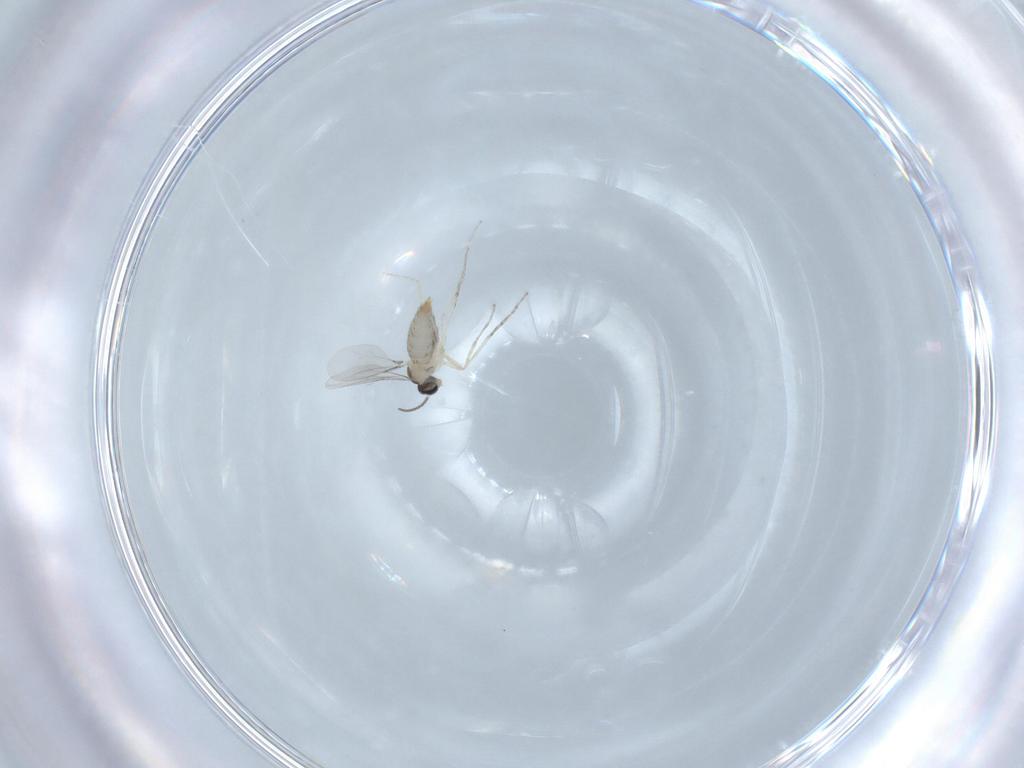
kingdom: Animalia
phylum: Arthropoda
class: Insecta
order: Diptera
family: Cecidomyiidae
